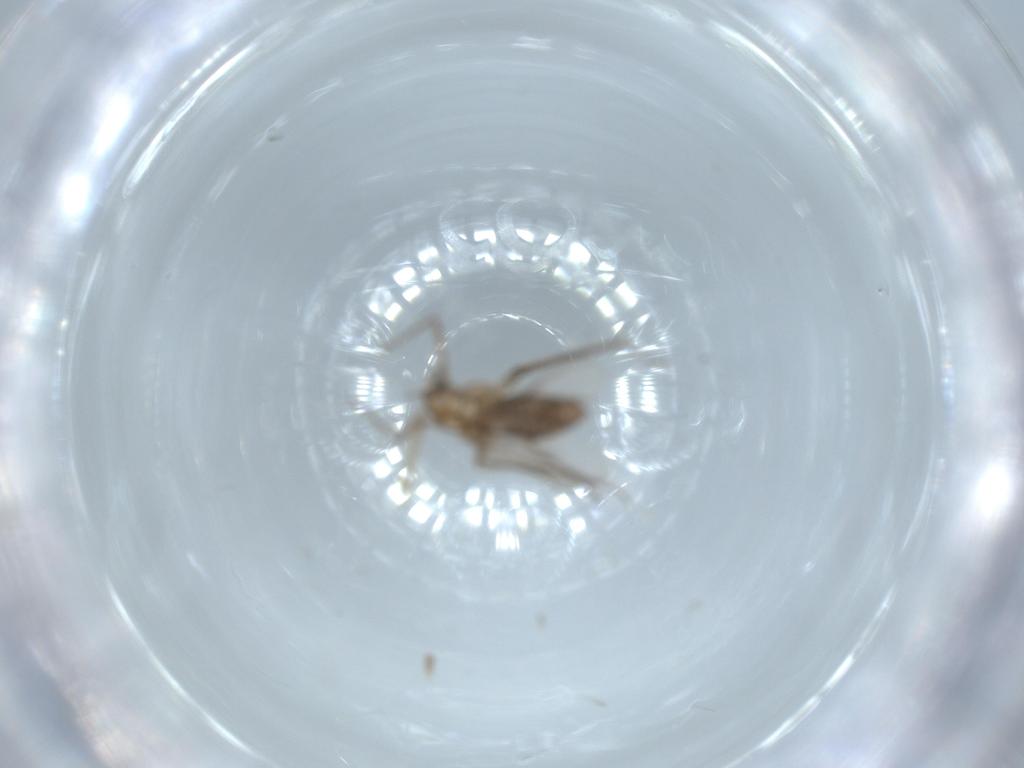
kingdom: Animalia
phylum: Arthropoda
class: Insecta
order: Diptera
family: Chironomidae
